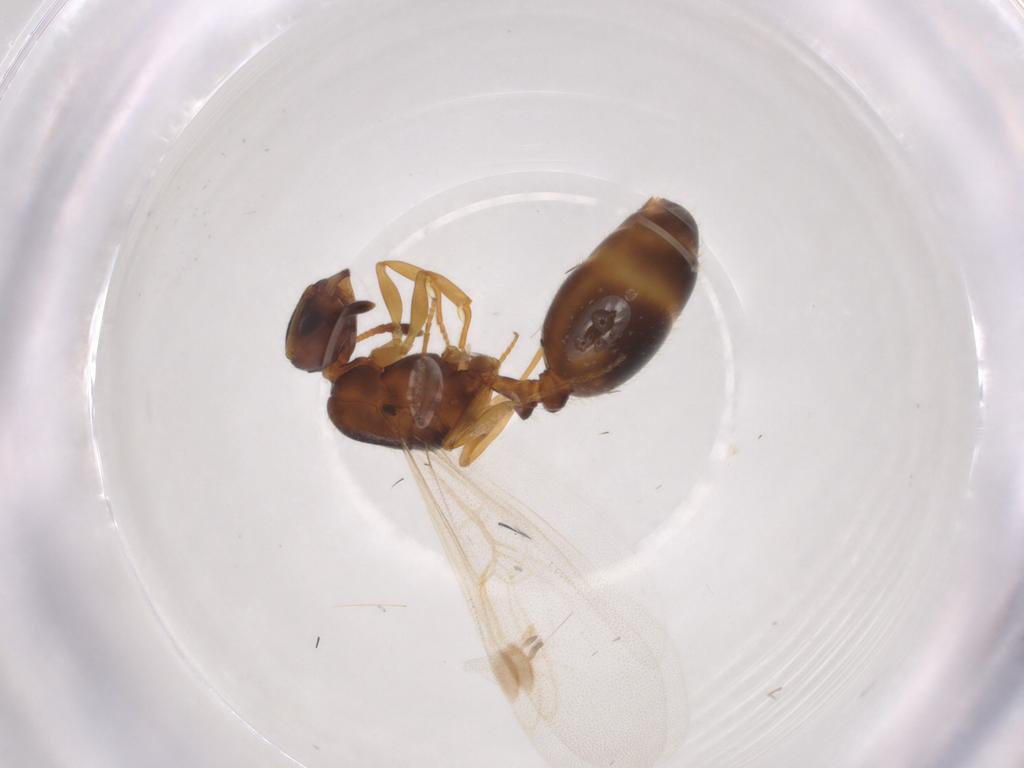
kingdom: Animalia
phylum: Arthropoda
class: Insecta
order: Hymenoptera
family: Formicidae
